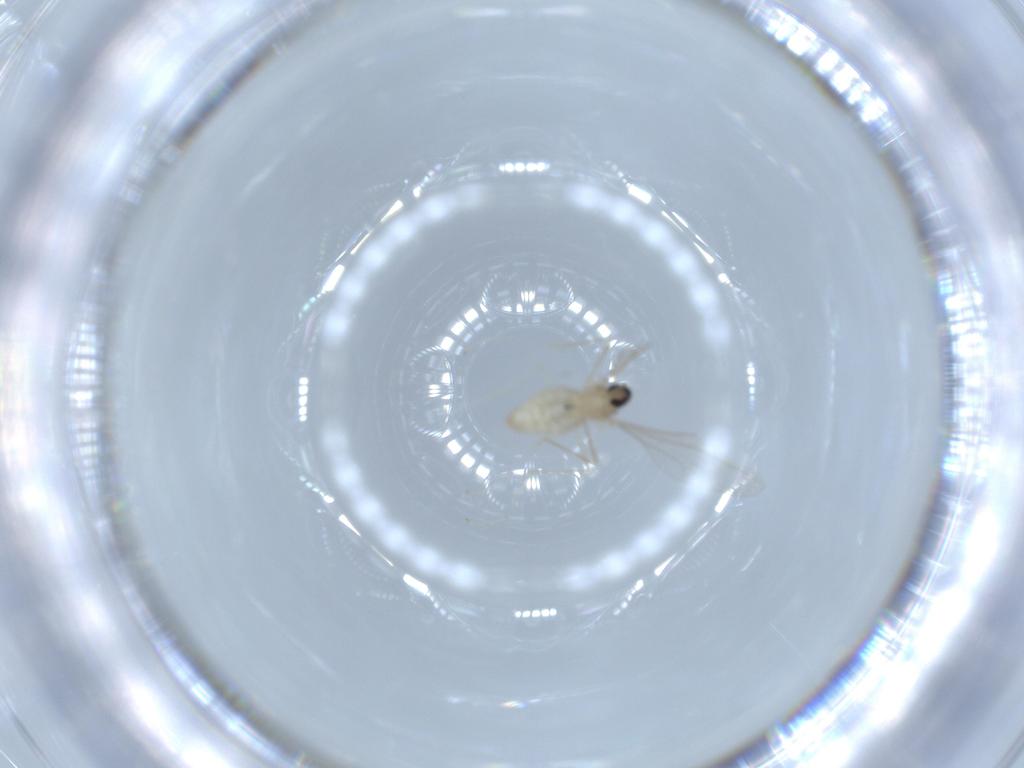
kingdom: Animalia
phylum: Arthropoda
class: Insecta
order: Diptera
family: Cecidomyiidae
